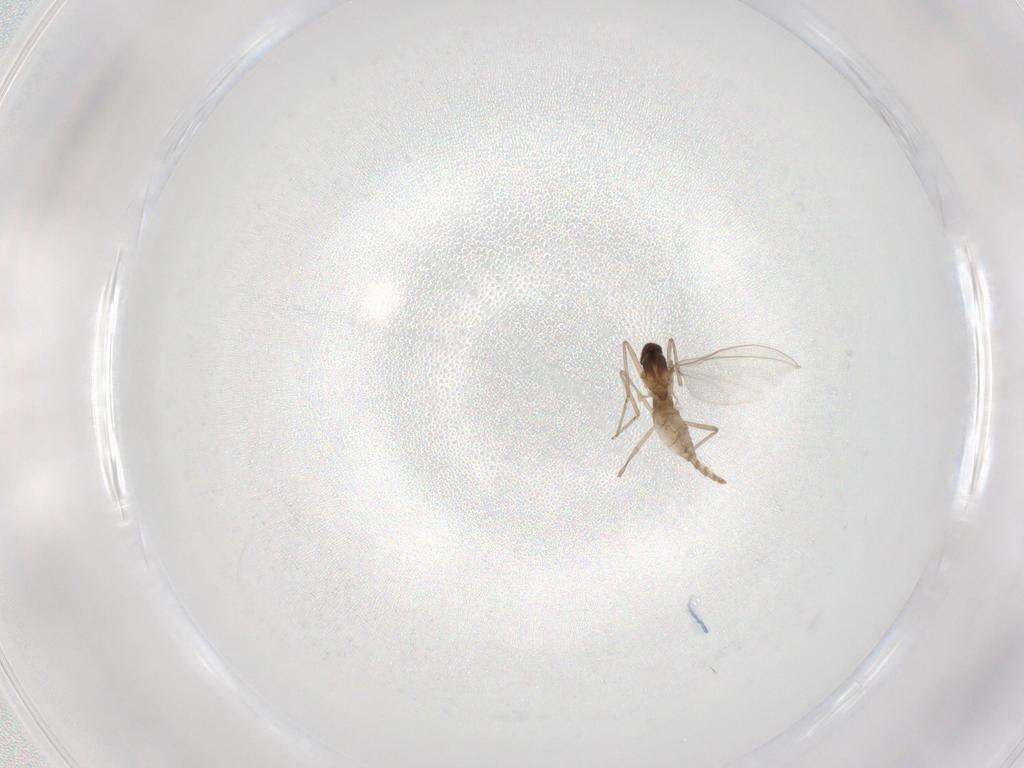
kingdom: Animalia
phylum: Arthropoda
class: Insecta
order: Diptera
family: Cecidomyiidae
